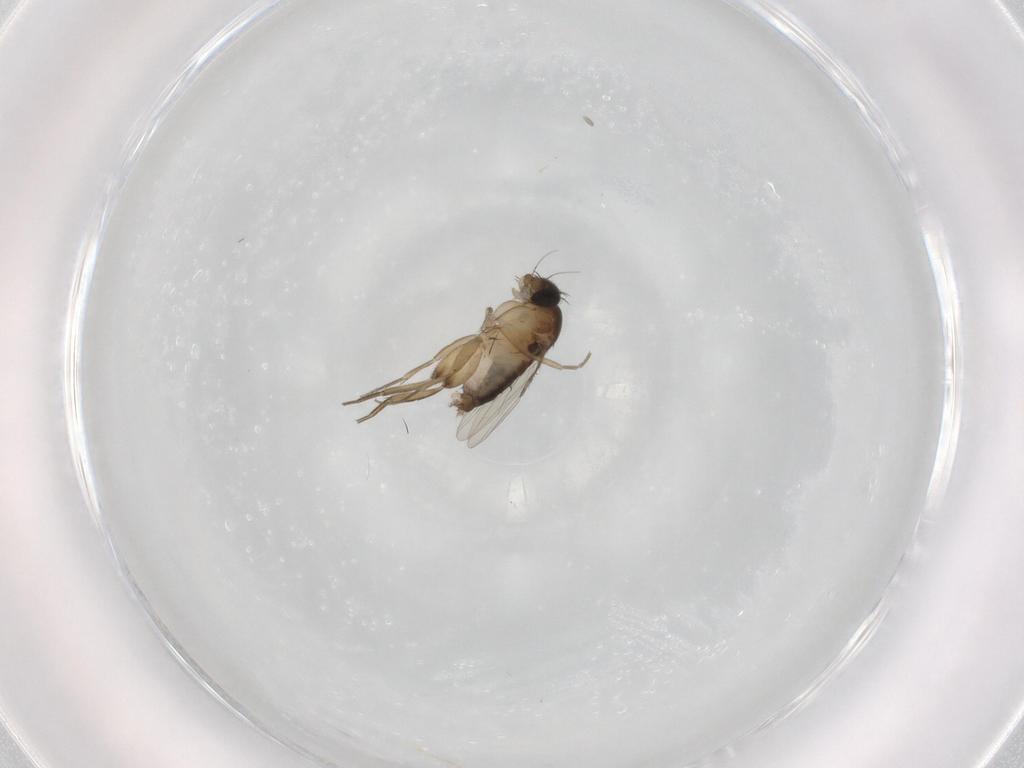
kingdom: Animalia
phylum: Arthropoda
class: Insecta
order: Diptera
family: Phoridae
